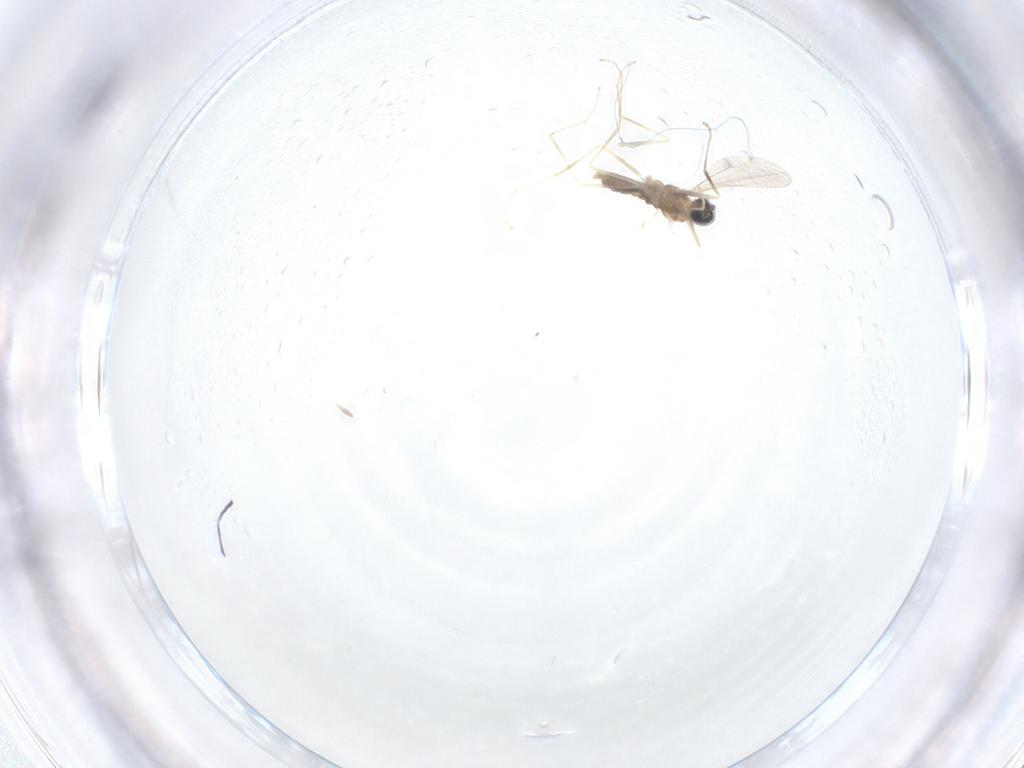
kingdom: Animalia
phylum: Arthropoda
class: Insecta
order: Diptera
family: Cecidomyiidae
